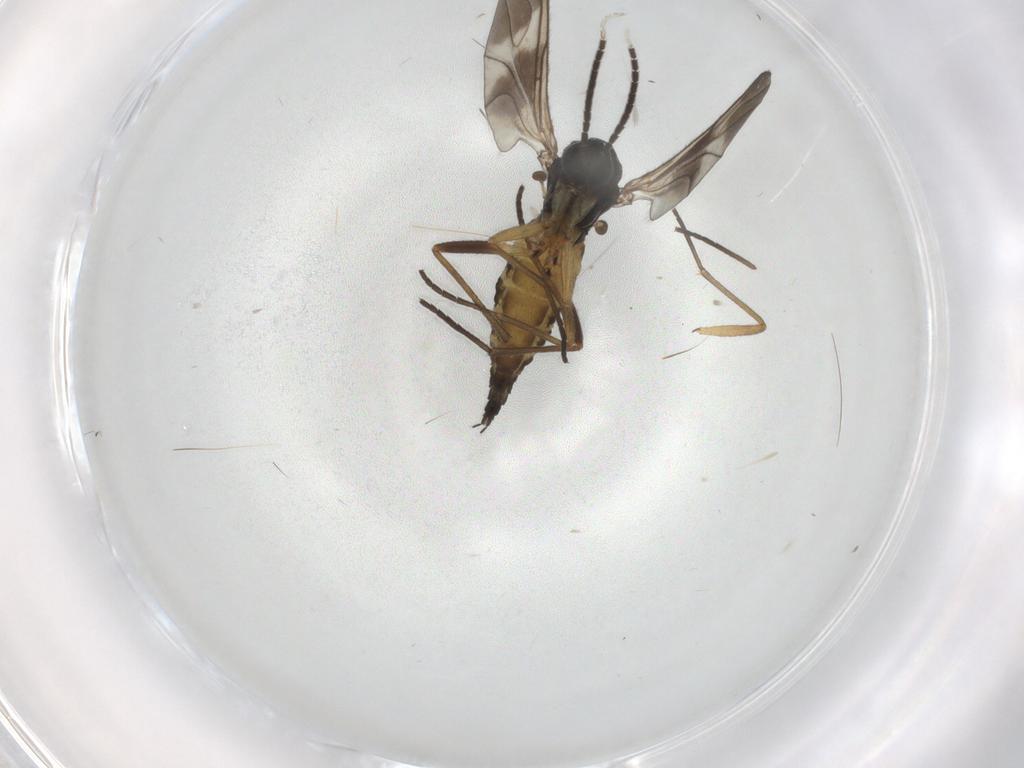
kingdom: Animalia
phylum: Arthropoda
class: Insecta
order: Diptera
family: Sciaridae
